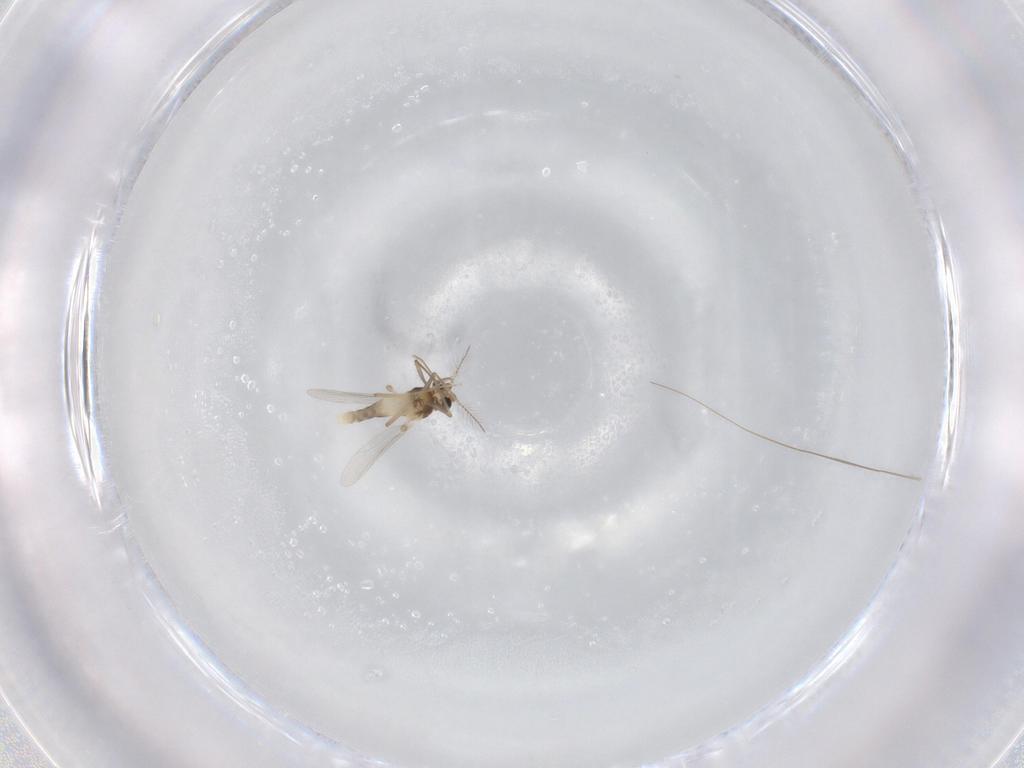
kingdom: Animalia
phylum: Arthropoda
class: Insecta
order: Diptera
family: Chironomidae
